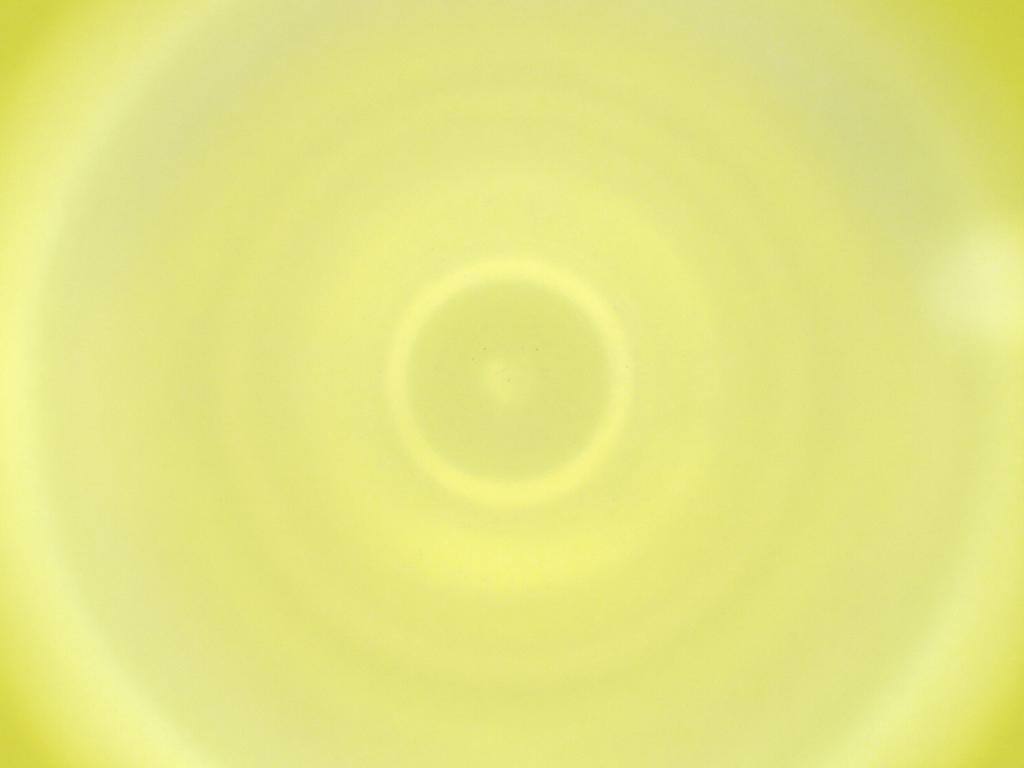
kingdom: Animalia
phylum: Arthropoda
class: Insecta
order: Diptera
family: Cecidomyiidae
